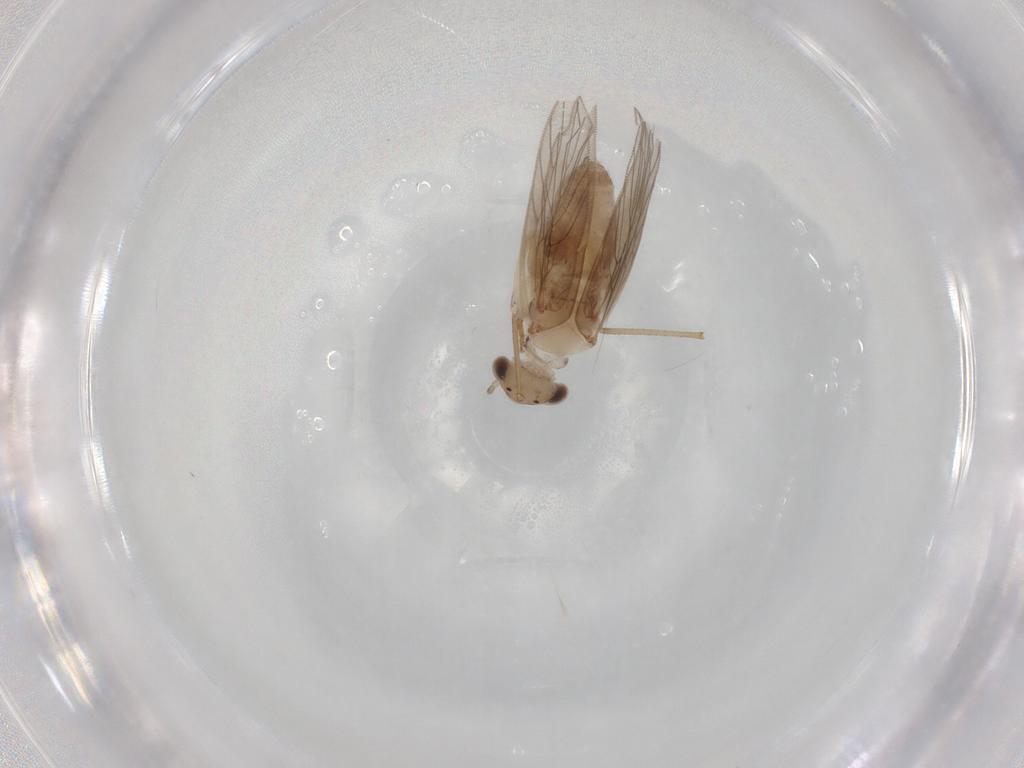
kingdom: Animalia
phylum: Arthropoda
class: Insecta
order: Psocodea
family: Lepidopsocidae
